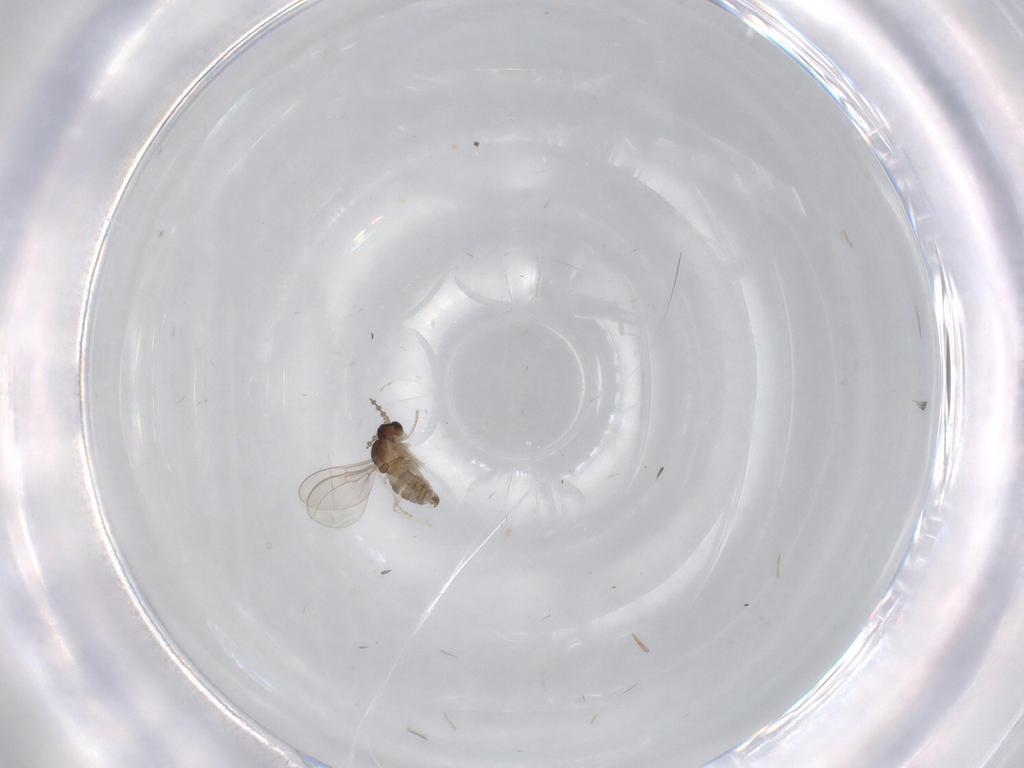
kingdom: Animalia
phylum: Arthropoda
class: Insecta
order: Diptera
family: Cecidomyiidae
